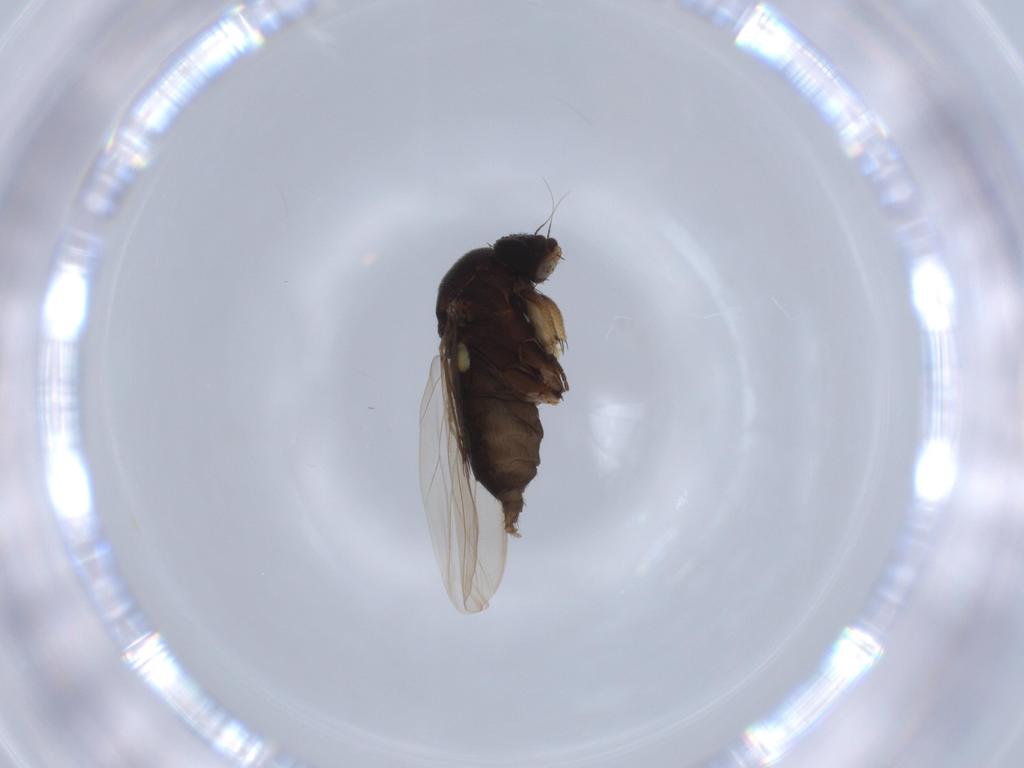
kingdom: Animalia
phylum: Arthropoda
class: Insecta
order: Diptera
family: Phoridae
